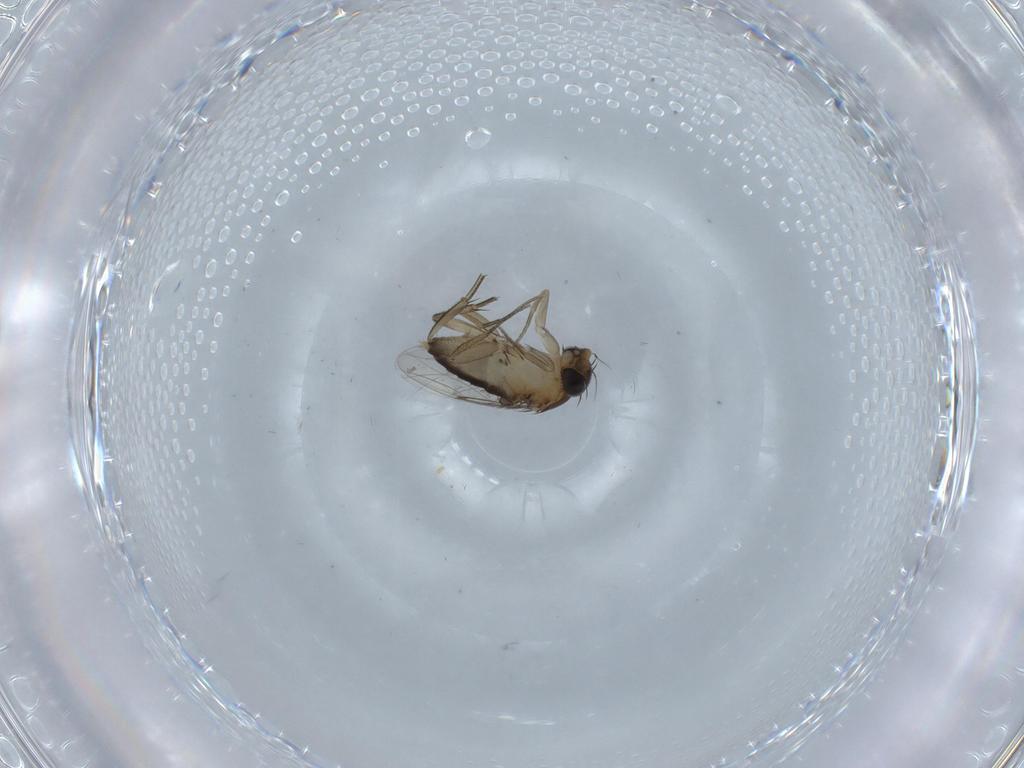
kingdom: Animalia
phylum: Arthropoda
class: Insecta
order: Diptera
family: Phoridae
